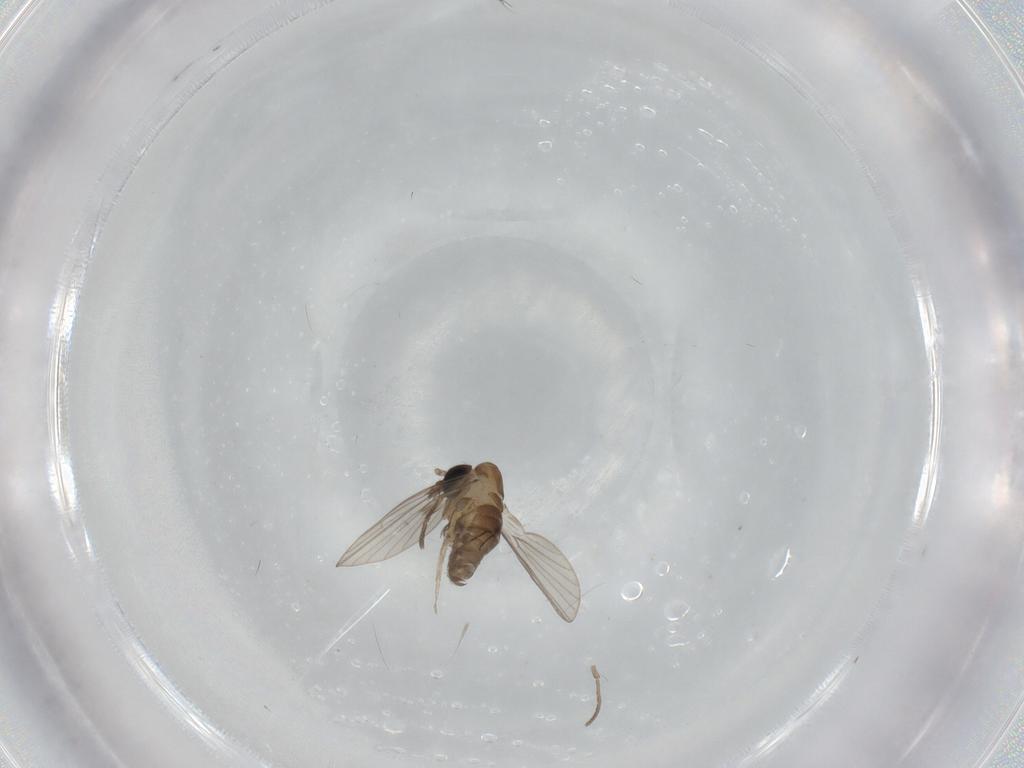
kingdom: Animalia
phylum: Arthropoda
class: Insecta
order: Diptera
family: Psychodidae
